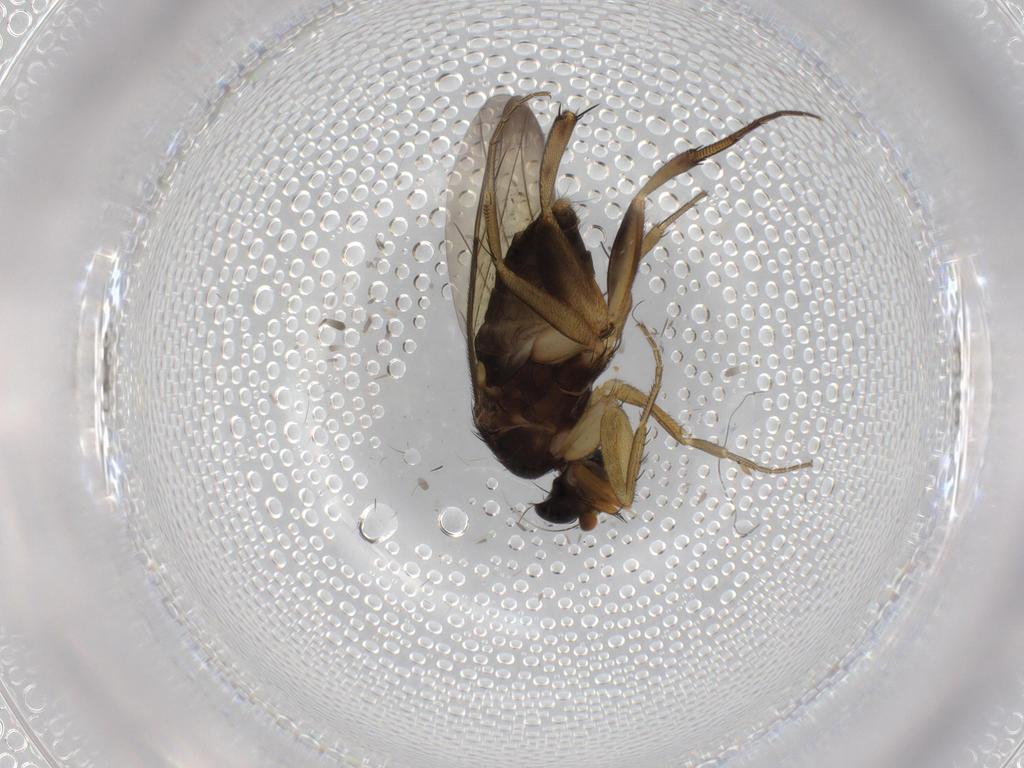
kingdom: Animalia
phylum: Arthropoda
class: Insecta
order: Diptera
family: Phoridae
